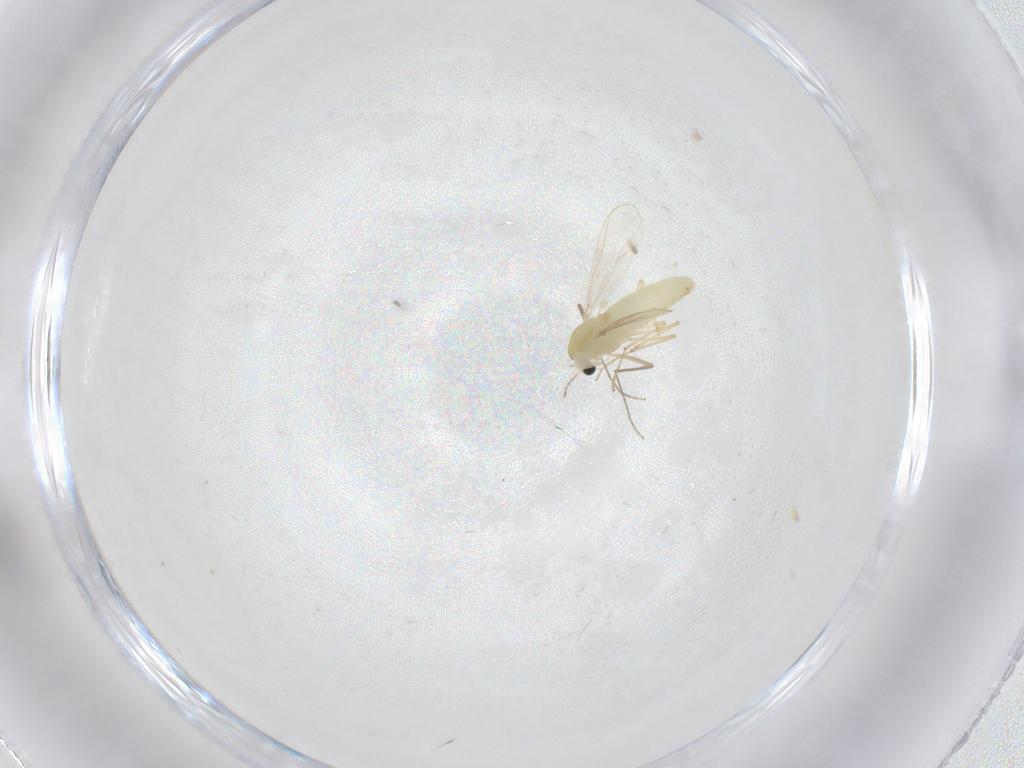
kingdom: Animalia
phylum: Arthropoda
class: Insecta
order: Diptera
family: Chironomidae
